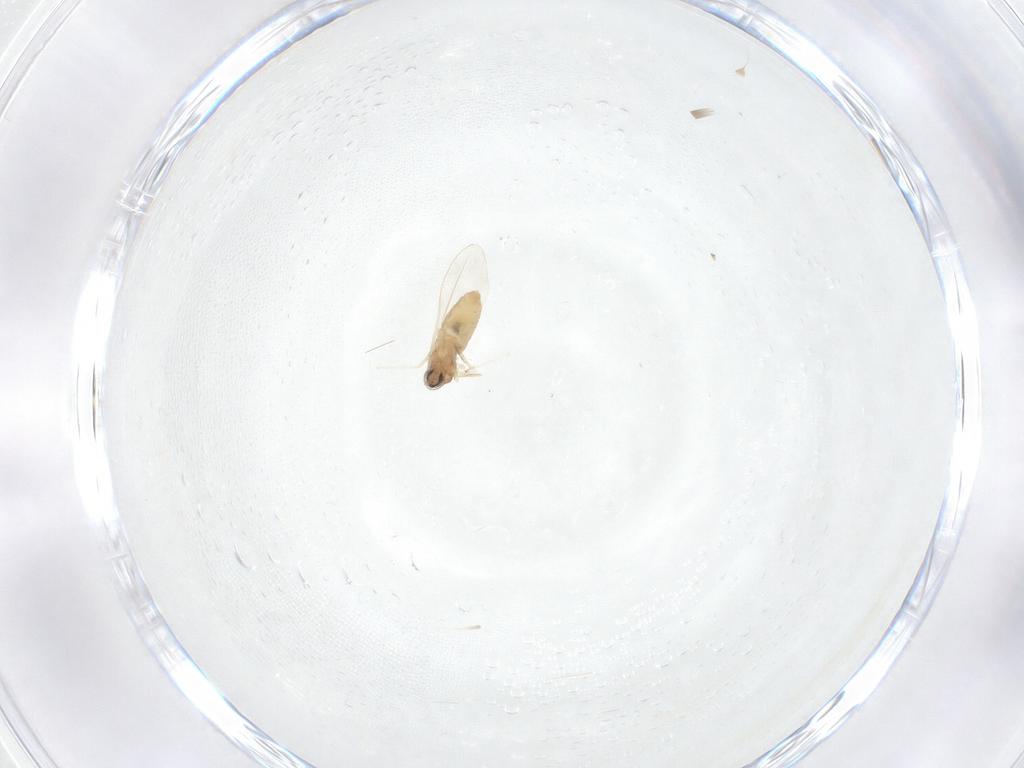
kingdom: Animalia
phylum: Arthropoda
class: Insecta
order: Diptera
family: Cecidomyiidae
